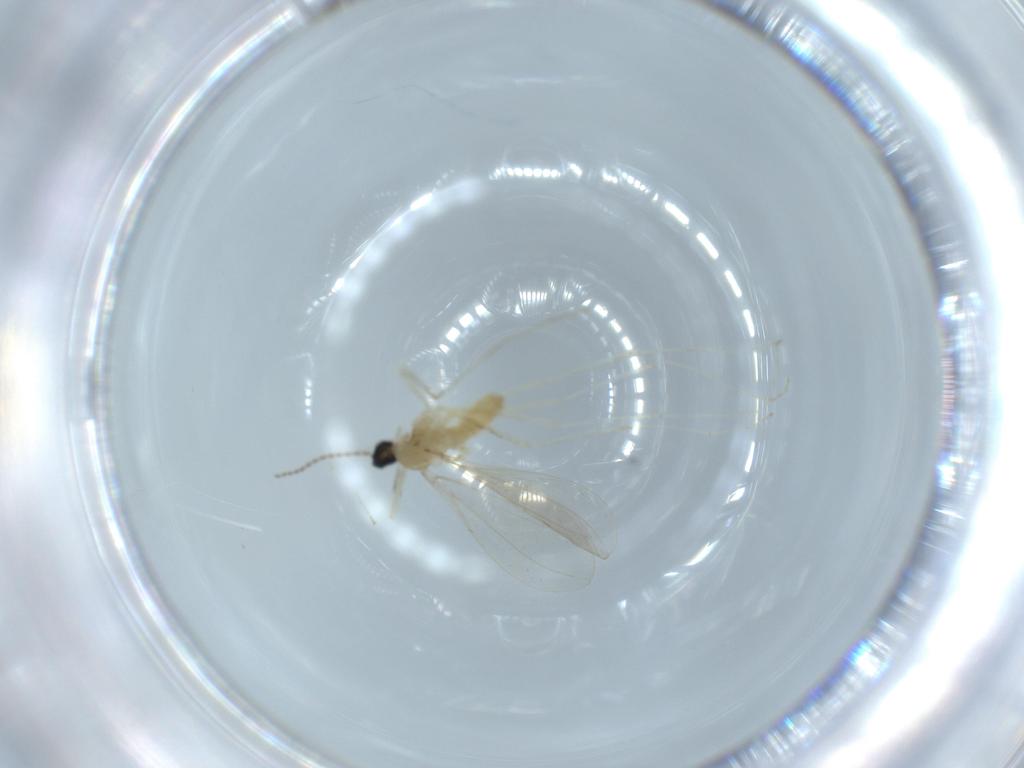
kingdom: Animalia
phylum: Arthropoda
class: Insecta
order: Diptera
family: Cecidomyiidae
